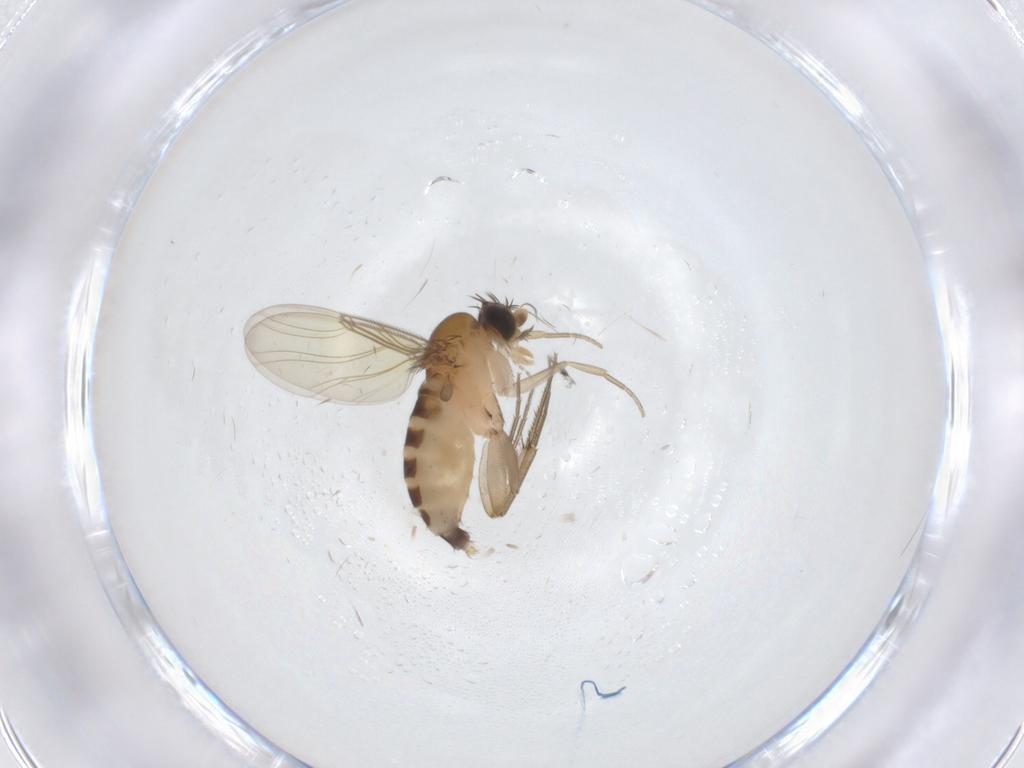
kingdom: Animalia
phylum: Arthropoda
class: Insecta
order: Diptera
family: Phoridae
